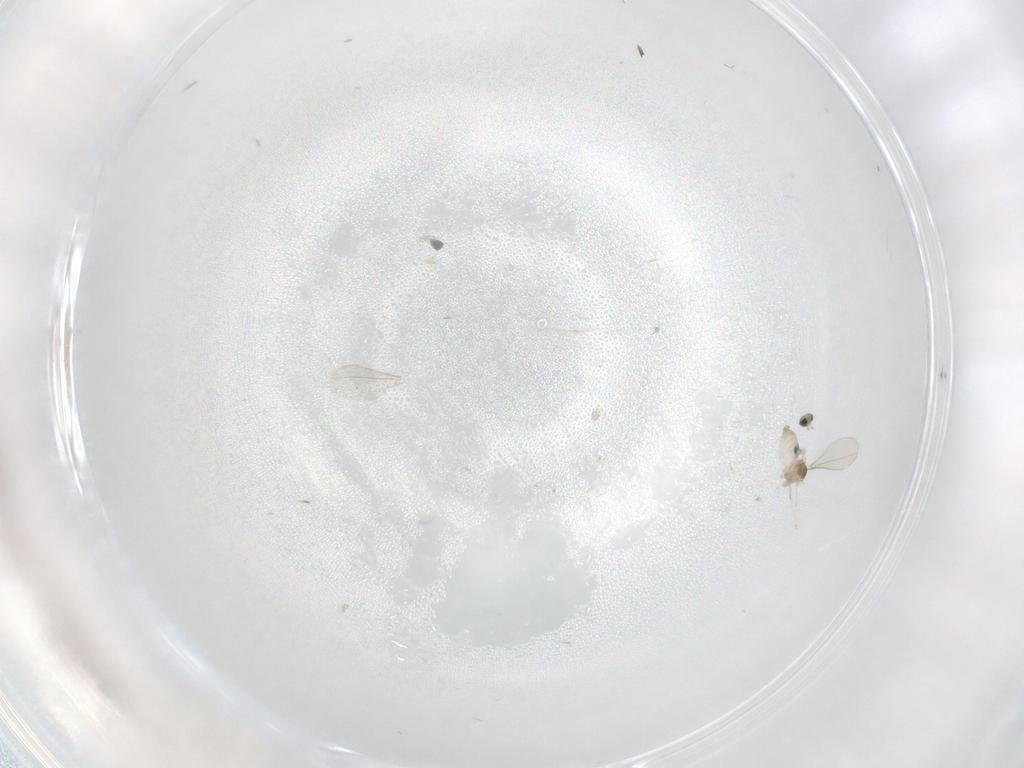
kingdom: Animalia
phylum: Arthropoda
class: Insecta
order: Diptera
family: Cecidomyiidae
